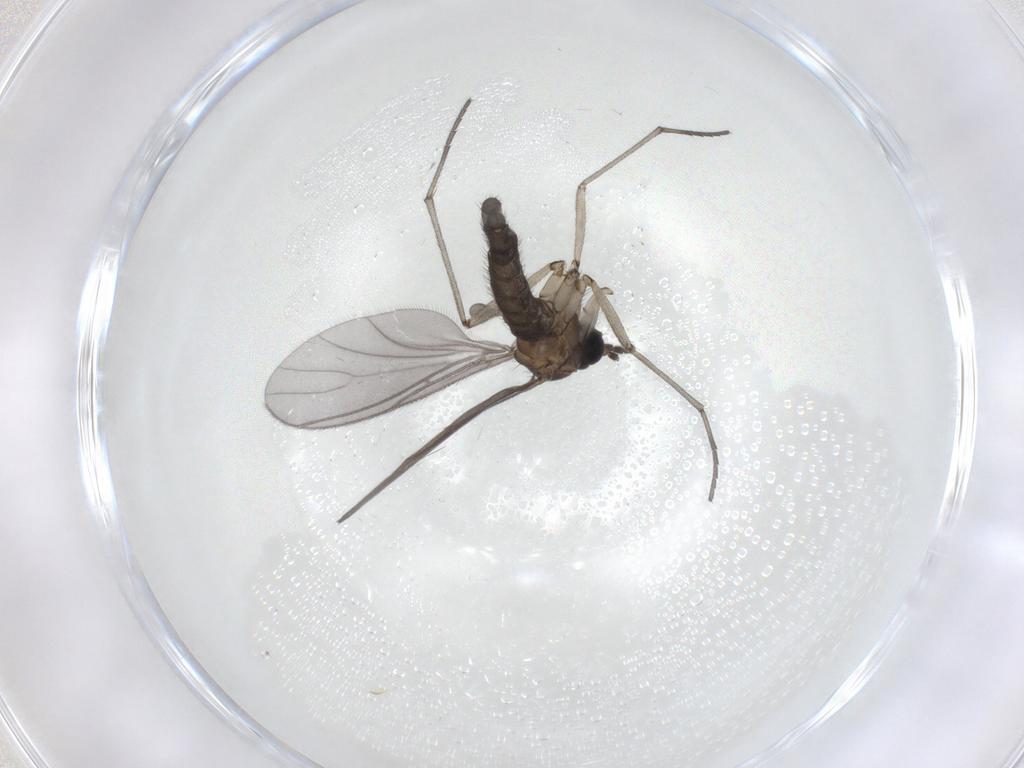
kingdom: Animalia
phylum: Arthropoda
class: Insecta
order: Diptera
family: Sciaridae
